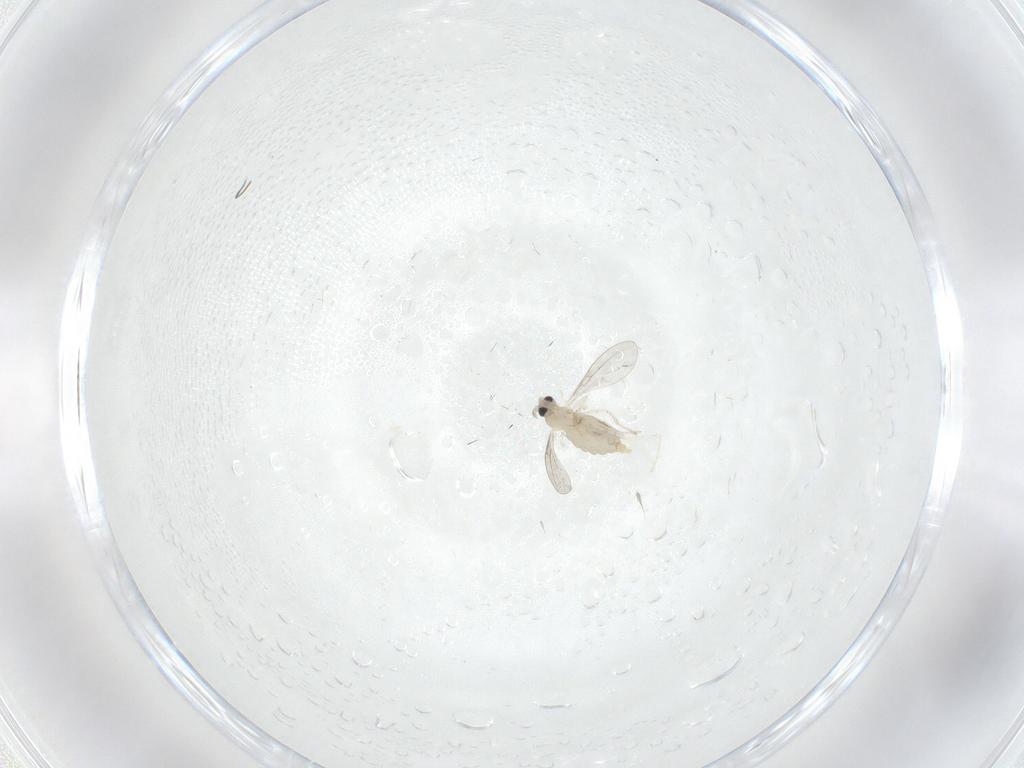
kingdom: Animalia
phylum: Arthropoda
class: Insecta
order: Diptera
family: Cecidomyiidae
